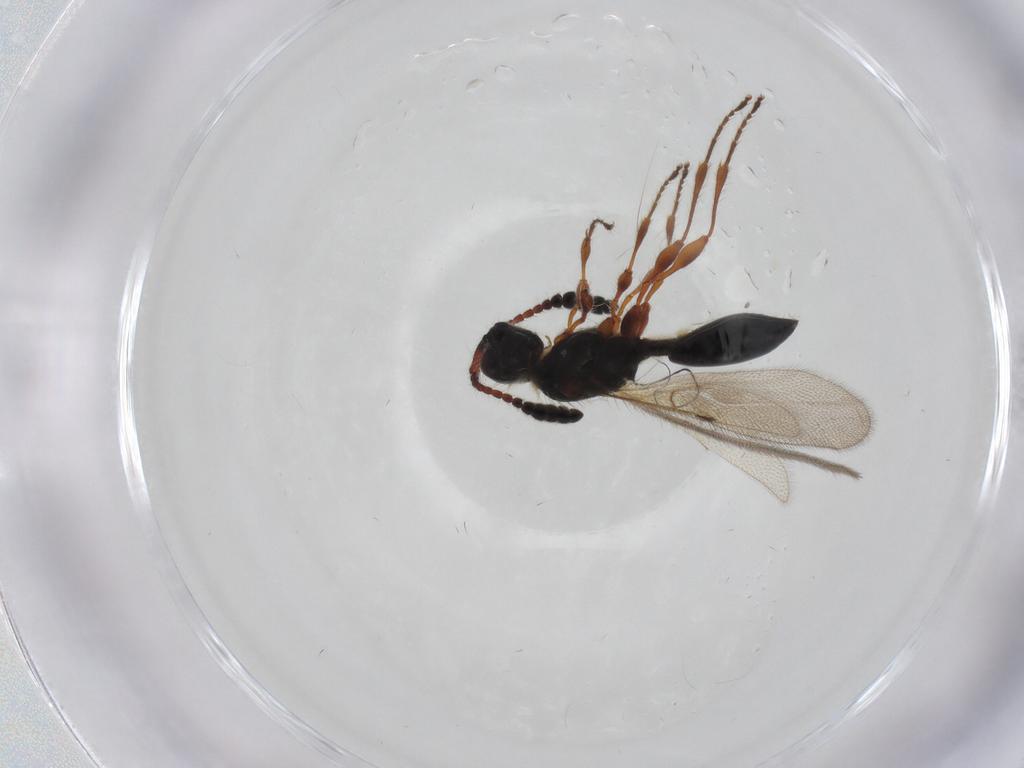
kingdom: Animalia
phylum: Arthropoda
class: Insecta
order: Hymenoptera
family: Diapriidae
